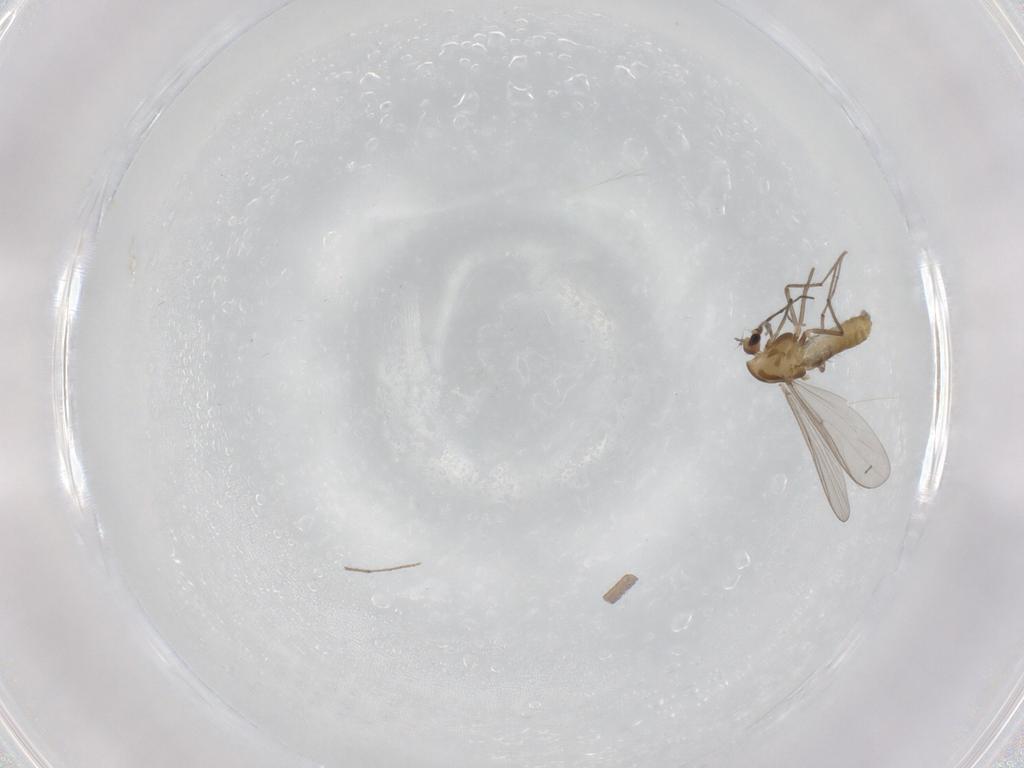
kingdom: Animalia
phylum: Arthropoda
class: Insecta
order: Diptera
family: Chironomidae
